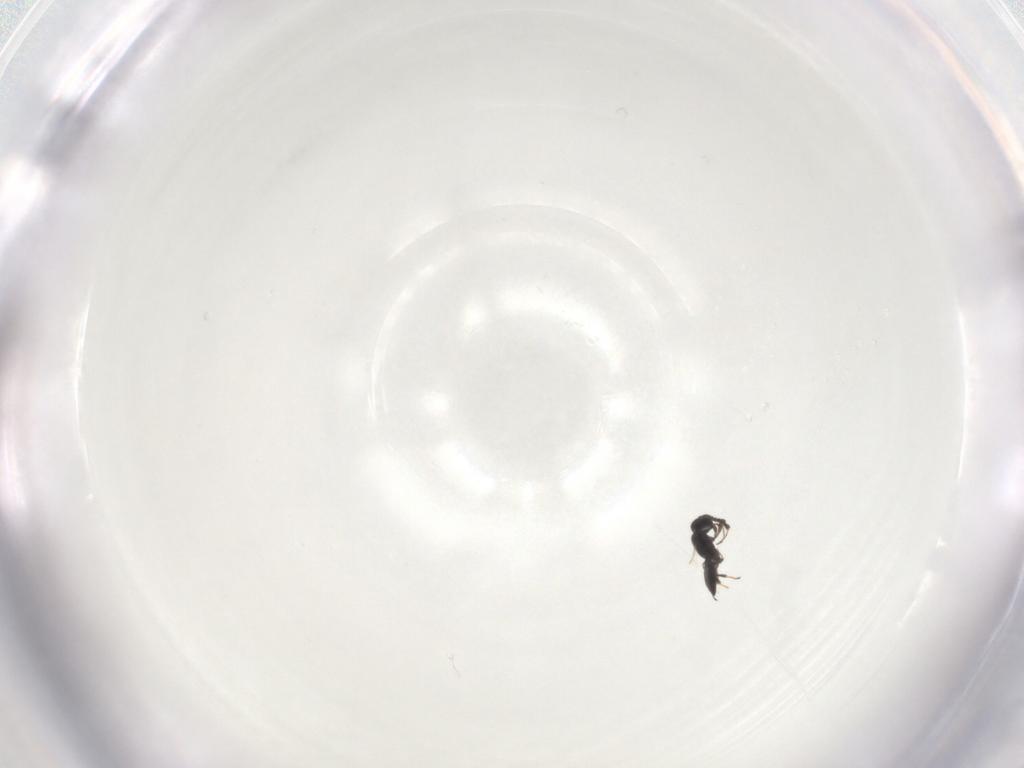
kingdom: Animalia
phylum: Arthropoda
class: Insecta
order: Hymenoptera
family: Scelionidae
